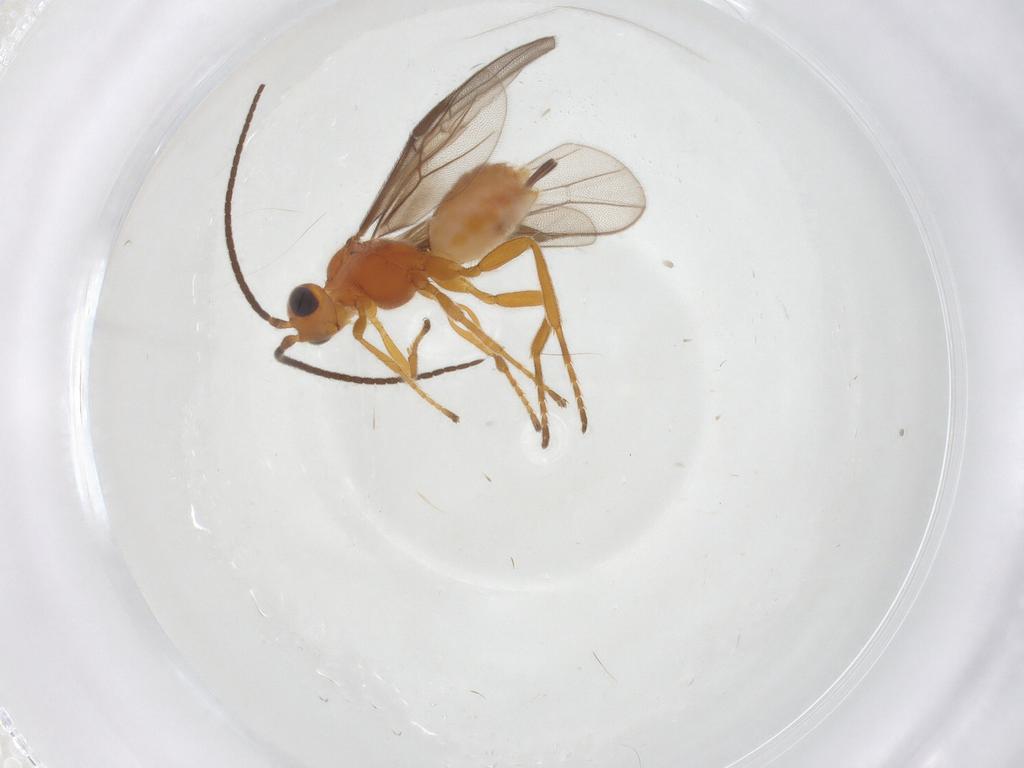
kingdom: Animalia
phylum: Arthropoda
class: Insecta
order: Hymenoptera
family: Braconidae
